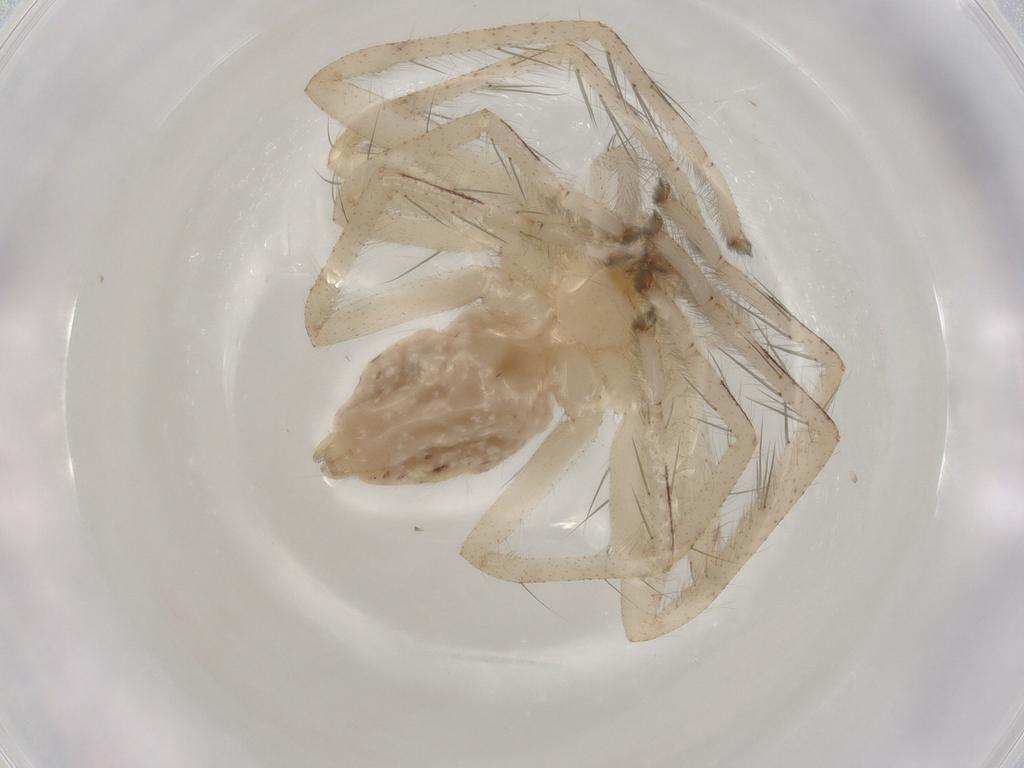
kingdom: Animalia
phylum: Arthropoda
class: Arachnida
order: Araneae
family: Sparassidae
